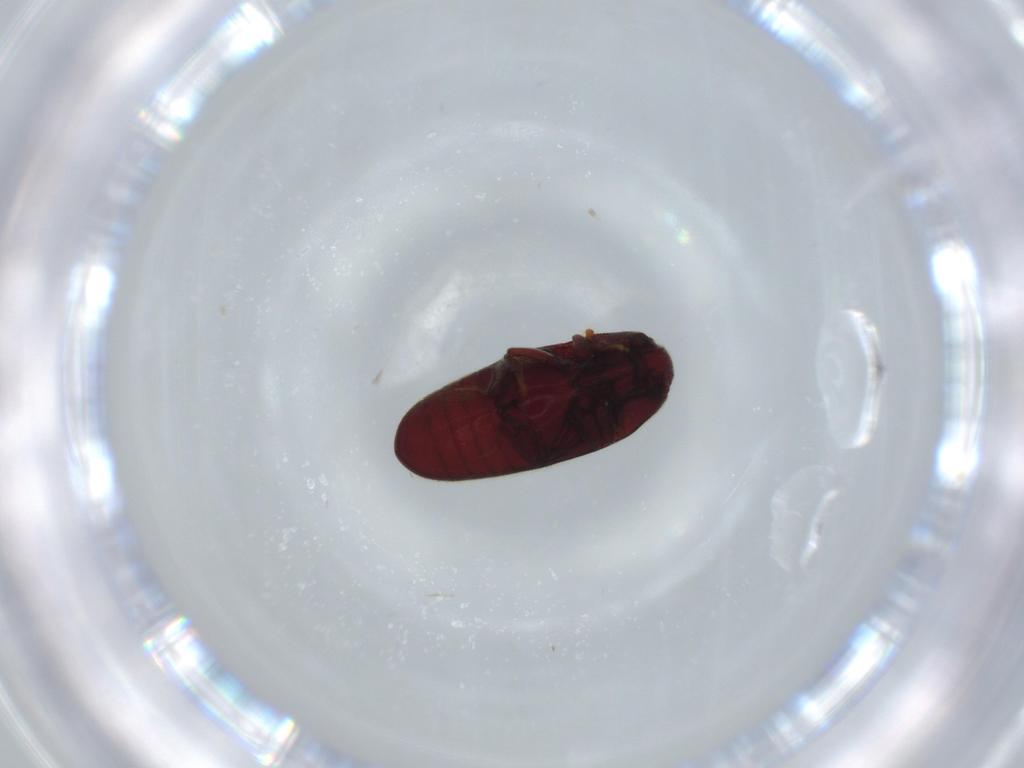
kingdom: Animalia
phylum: Arthropoda
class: Insecta
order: Coleoptera
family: Throscidae
